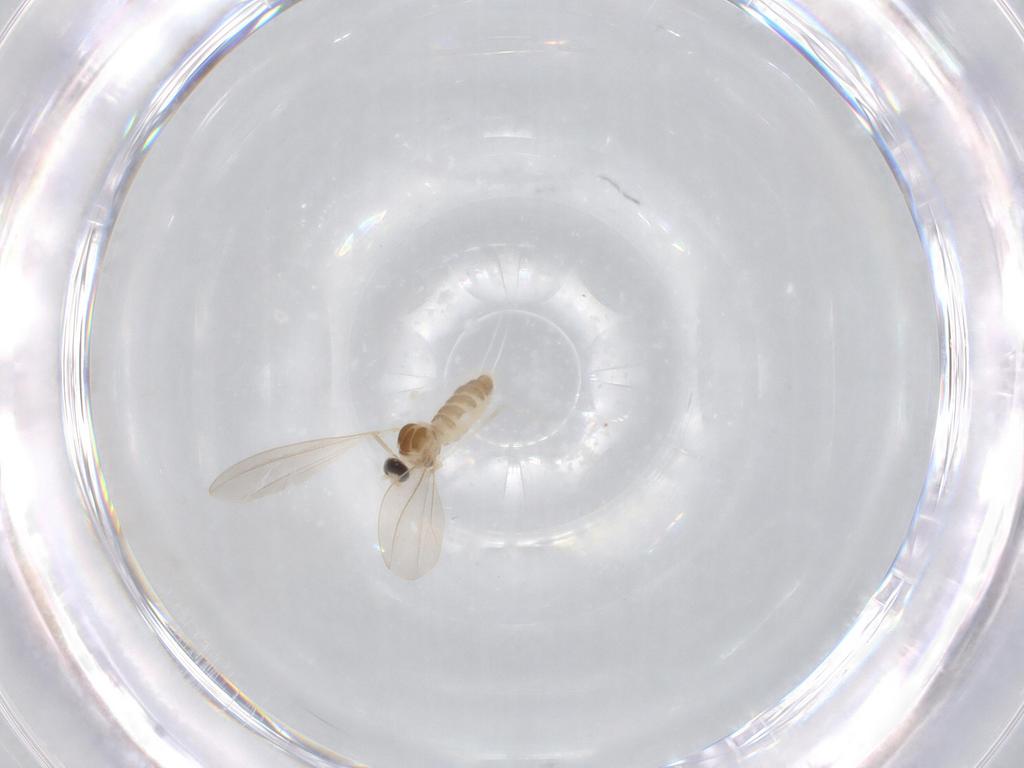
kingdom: Animalia
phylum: Arthropoda
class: Insecta
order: Diptera
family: Cecidomyiidae
